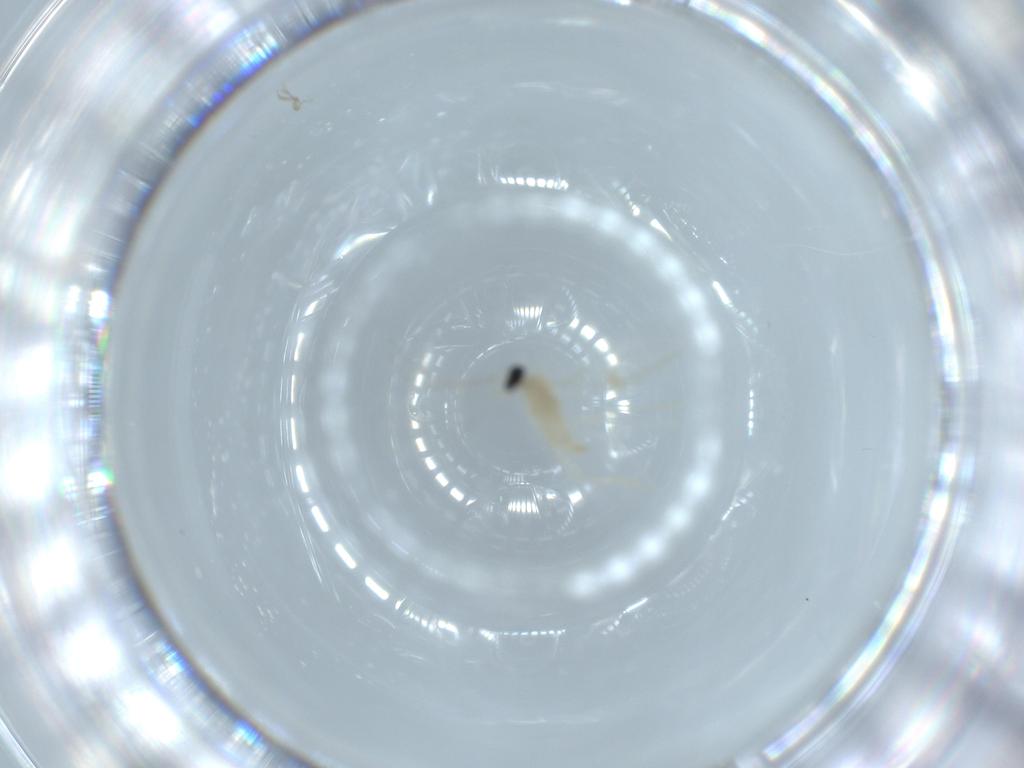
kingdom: Animalia
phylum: Arthropoda
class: Insecta
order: Diptera
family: Cecidomyiidae
